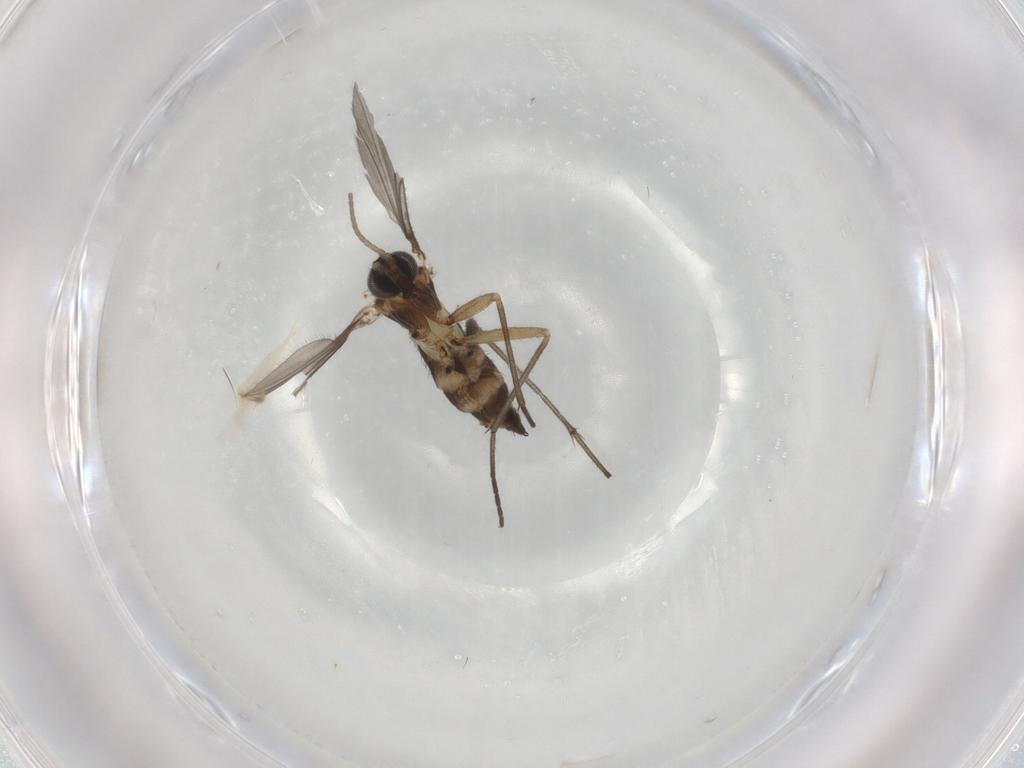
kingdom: Animalia
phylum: Arthropoda
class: Insecta
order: Diptera
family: Sciaridae
